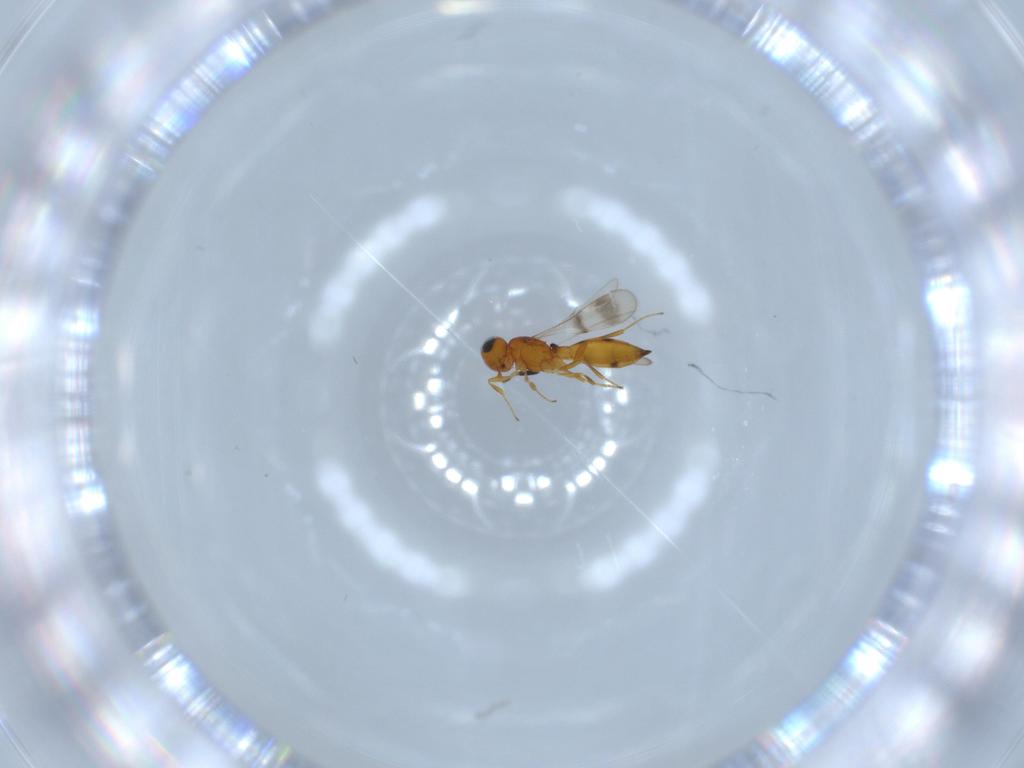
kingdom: Animalia
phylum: Arthropoda
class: Insecta
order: Hymenoptera
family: Scelionidae
